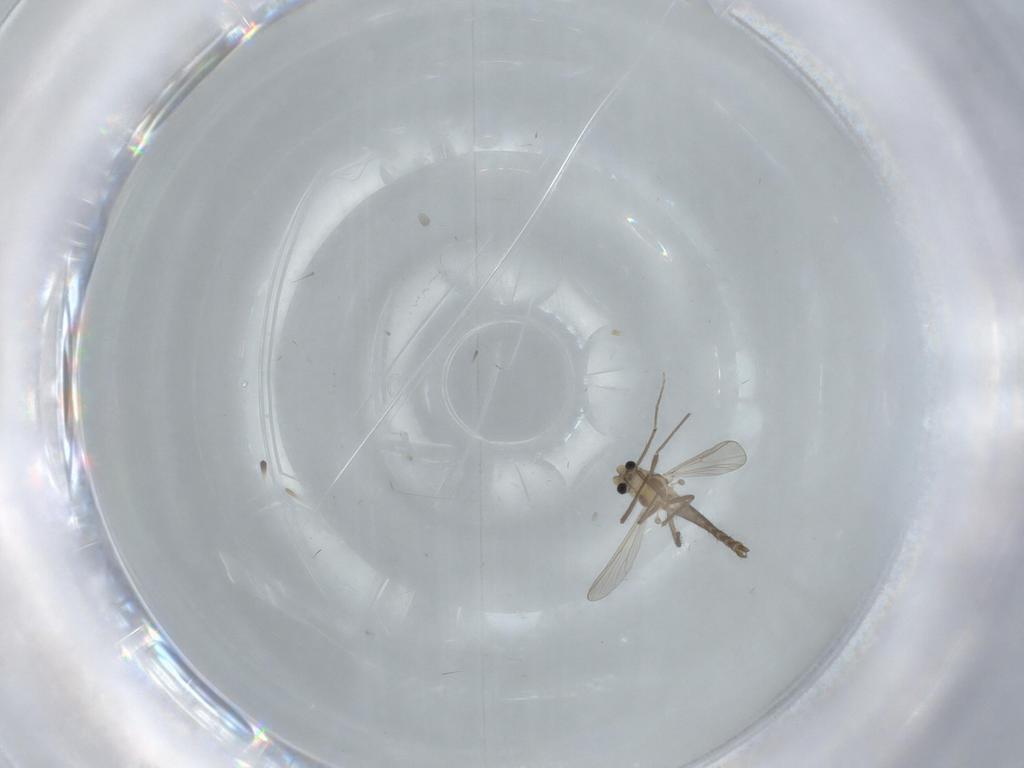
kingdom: Animalia
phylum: Arthropoda
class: Insecta
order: Diptera
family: Chironomidae
